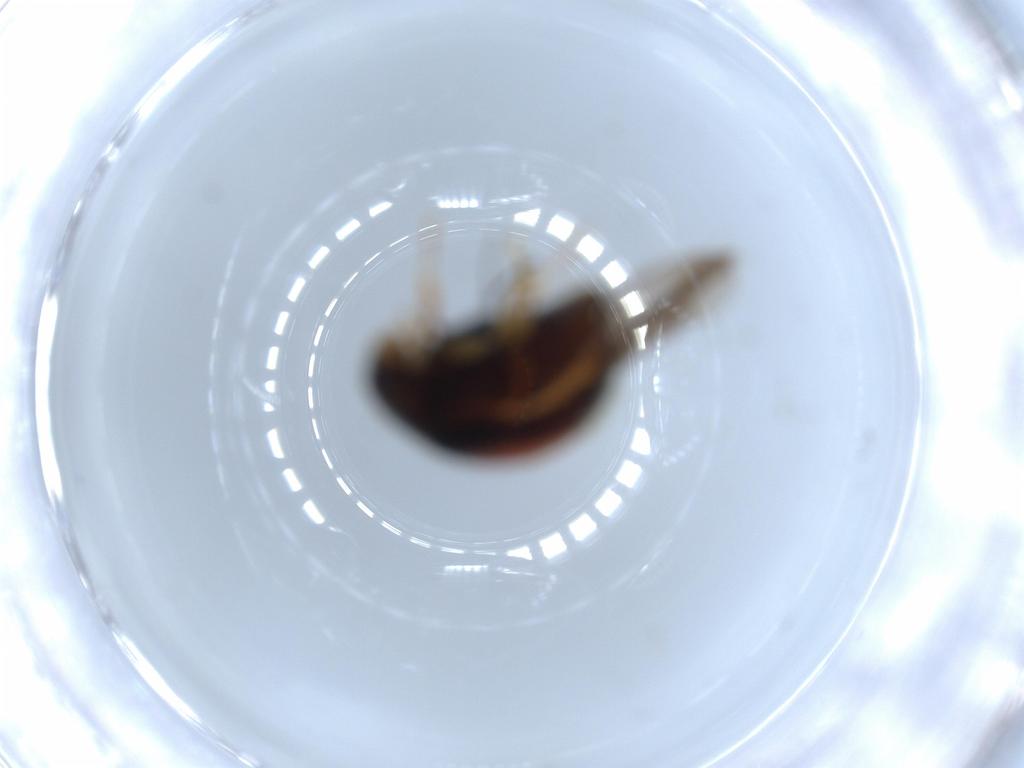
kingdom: Animalia
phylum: Arthropoda
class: Insecta
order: Coleoptera
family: Coccinellidae
